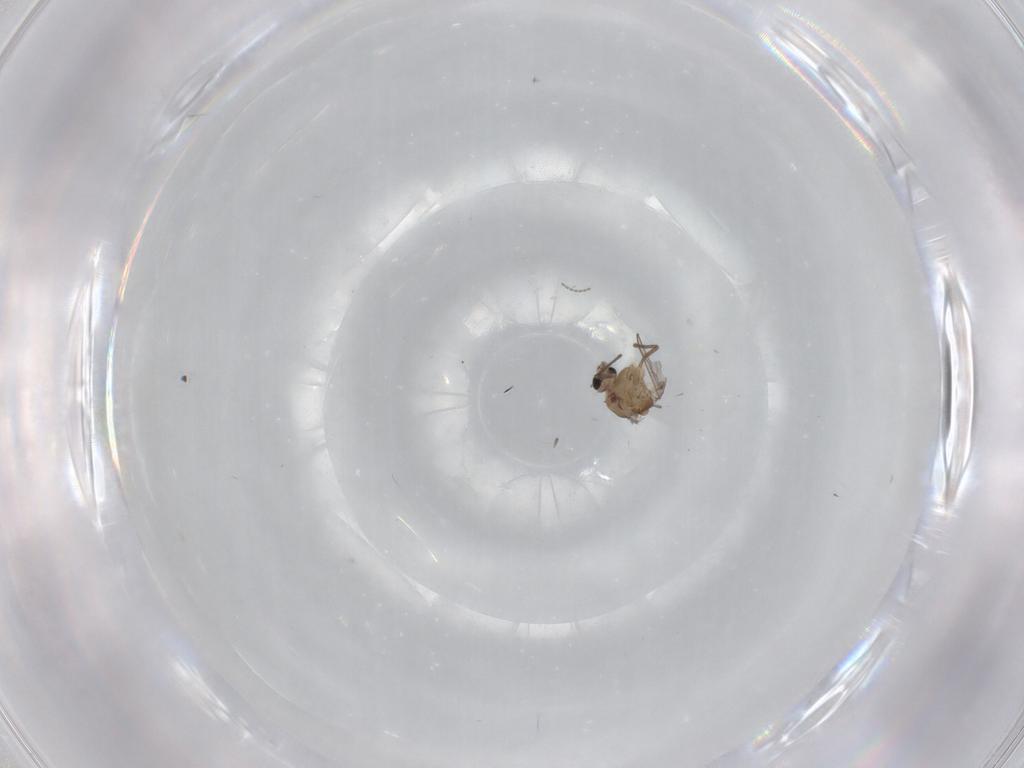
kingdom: Animalia
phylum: Arthropoda
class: Insecta
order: Diptera
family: Chironomidae
